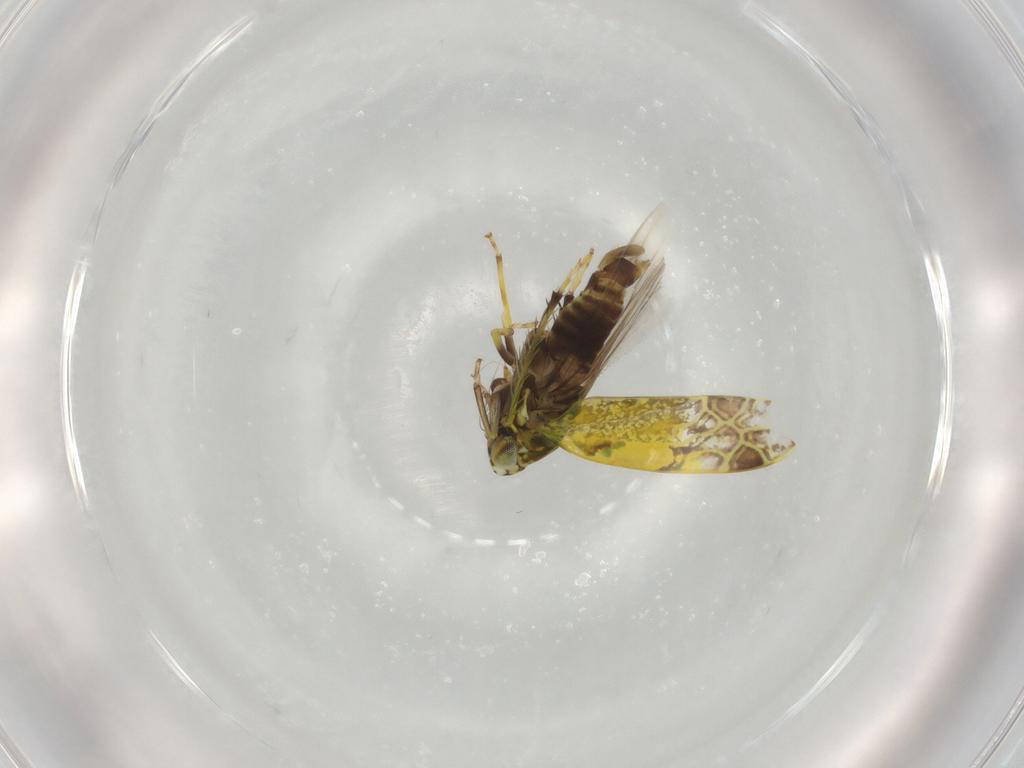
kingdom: Animalia
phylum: Arthropoda
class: Insecta
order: Hemiptera
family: Cicadellidae
